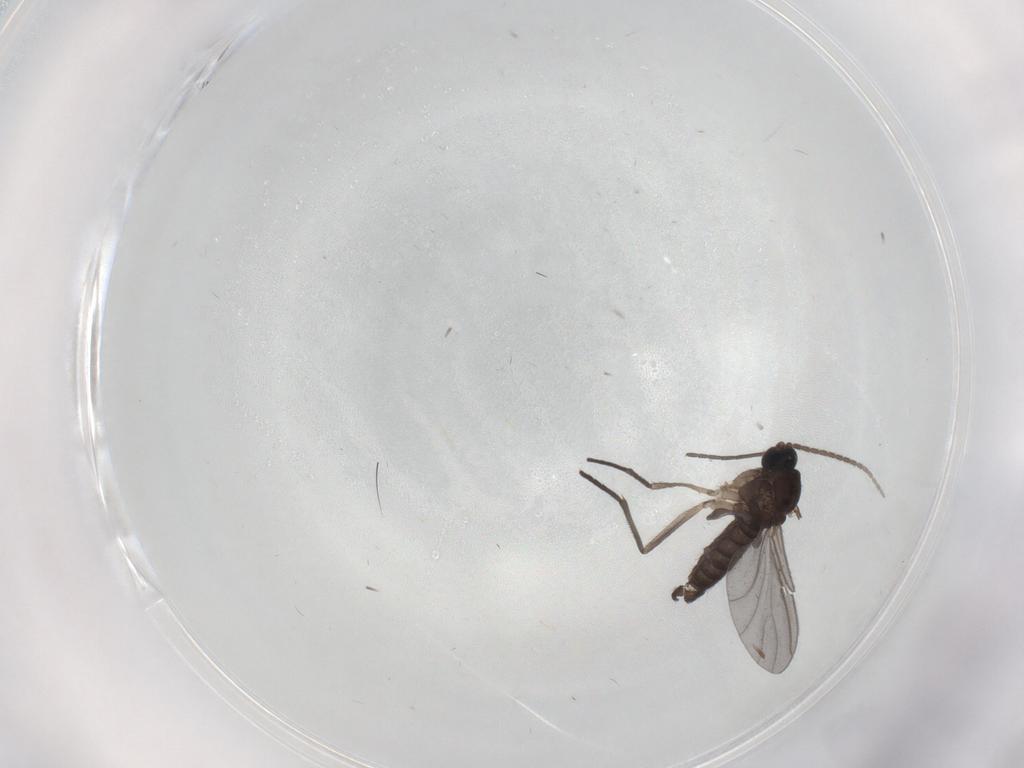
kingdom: Animalia
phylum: Arthropoda
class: Insecta
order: Diptera
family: Sciaridae
